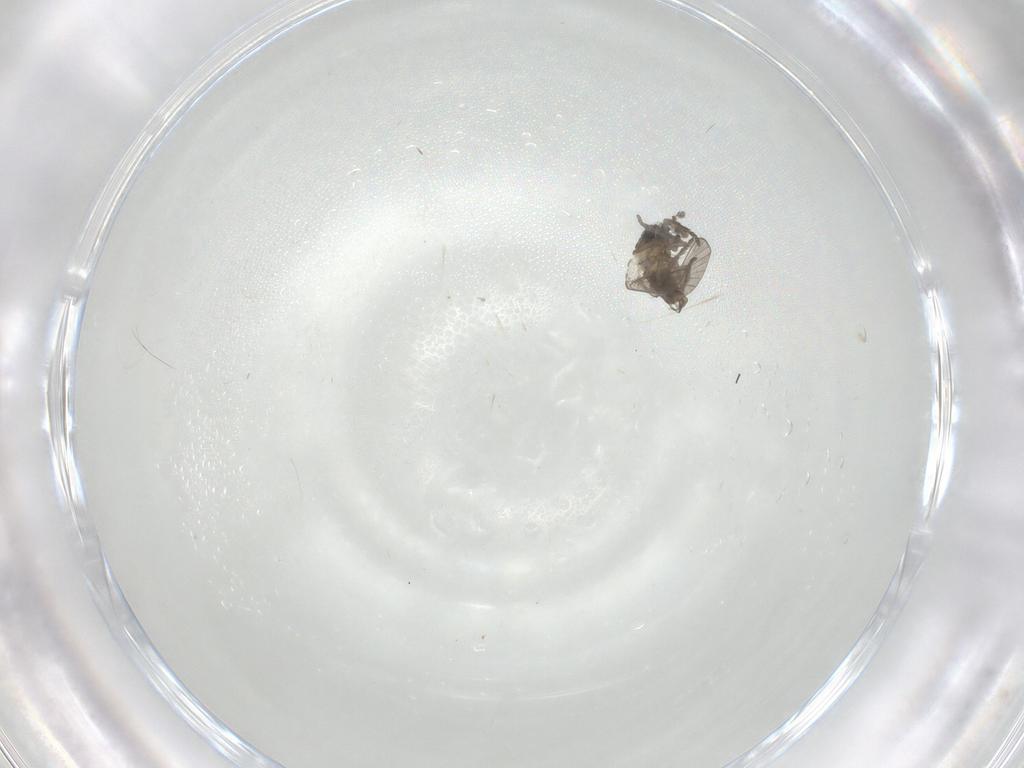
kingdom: Animalia
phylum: Arthropoda
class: Insecta
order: Diptera
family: Psychodidae
